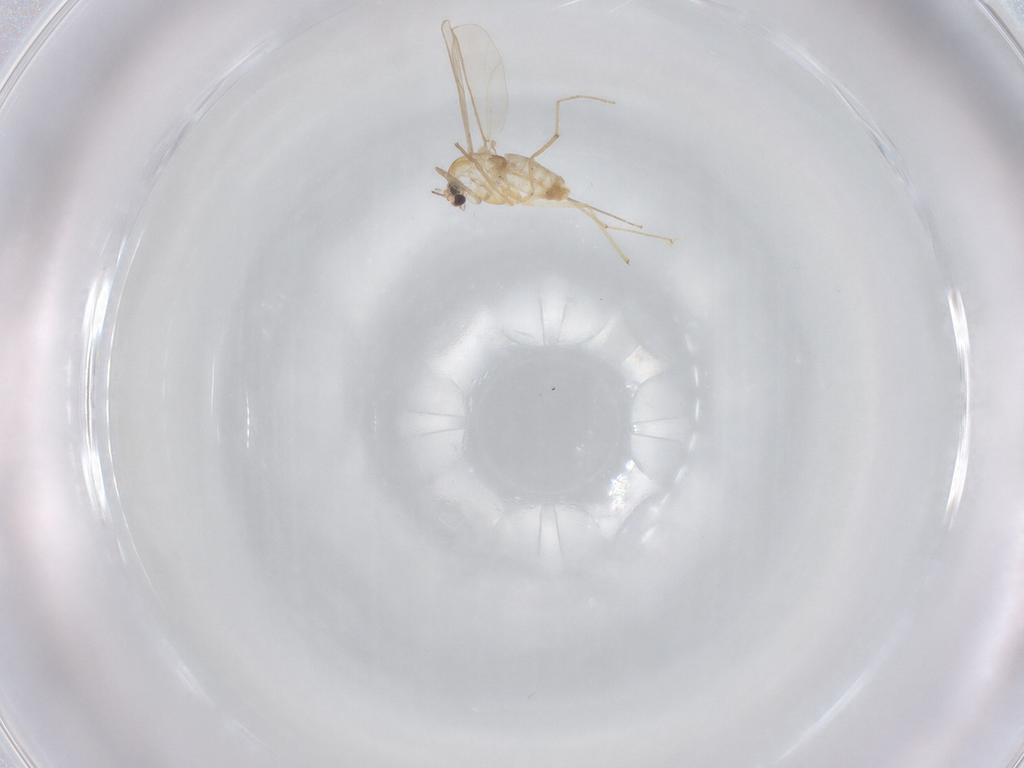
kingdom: Animalia
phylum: Arthropoda
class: Insecta
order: Diptera
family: Chironomidae
